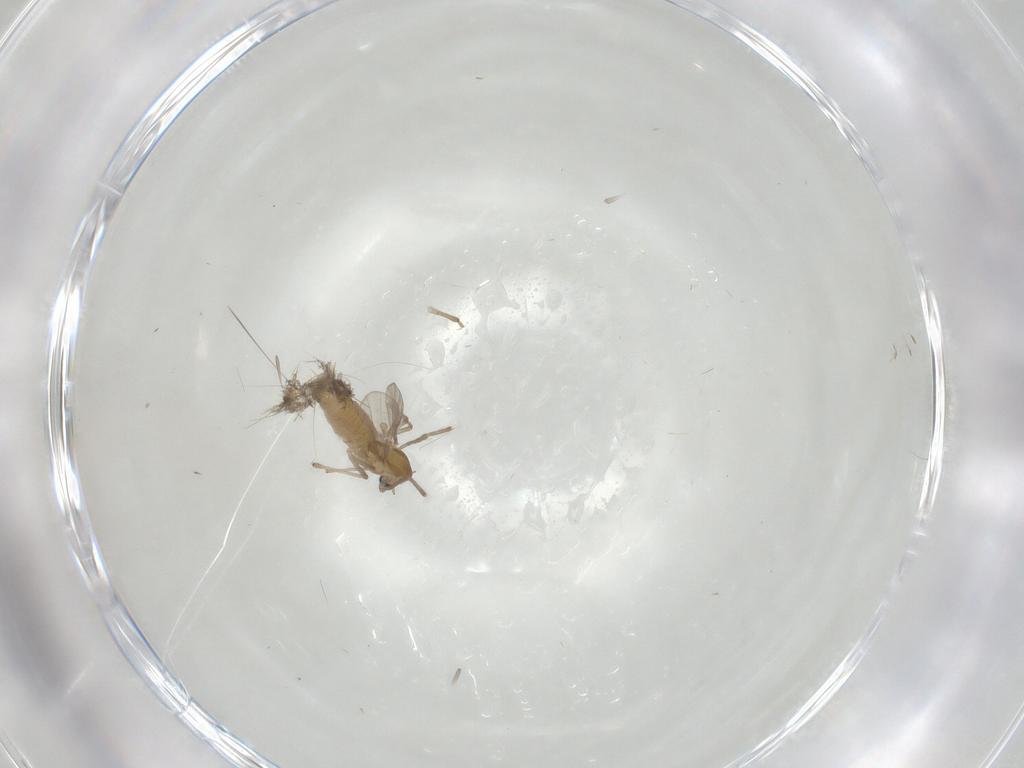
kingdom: Animalia
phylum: Arthropoda
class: Insecta
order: Diptera
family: Chironomidae
